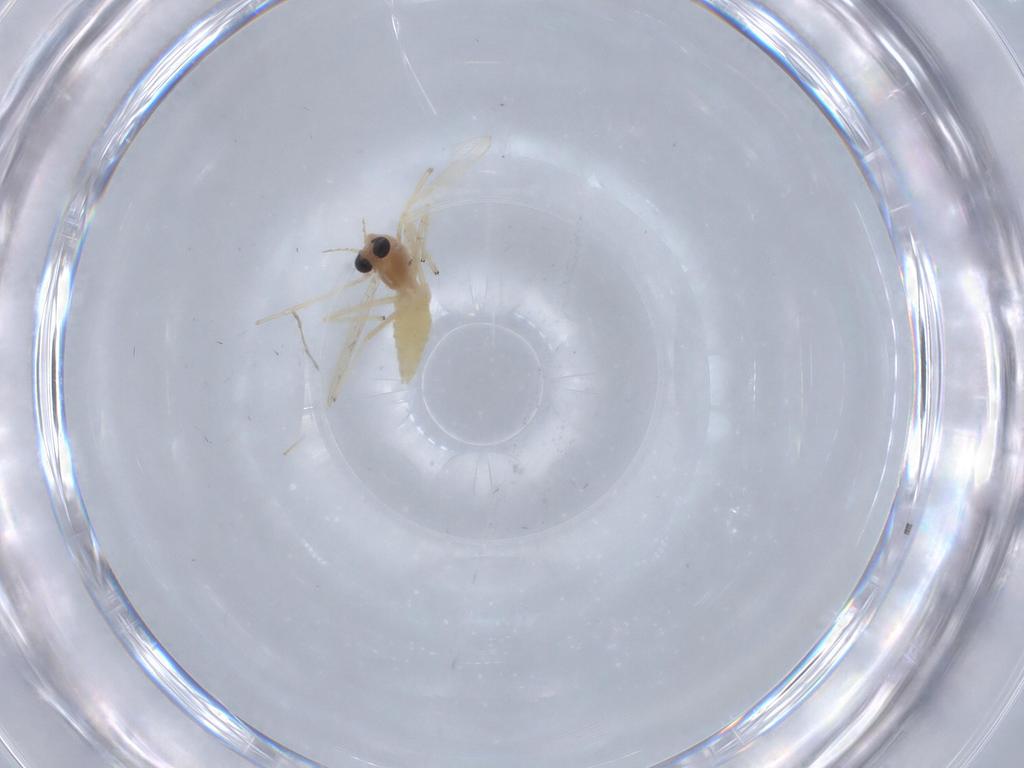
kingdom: Animalia
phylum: Arthropoda
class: Insecta
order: Diptera
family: Chironomidae
